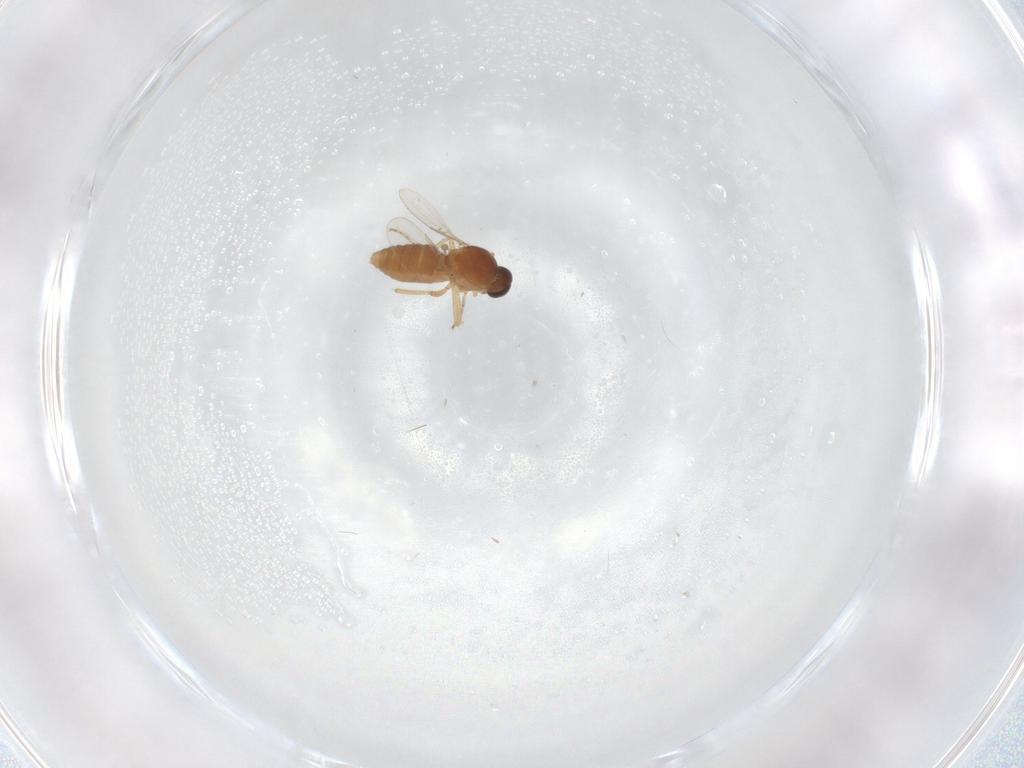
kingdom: Animalia
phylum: Arthropoda
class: Insecta
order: Diptera
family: Ceratopogonidae
